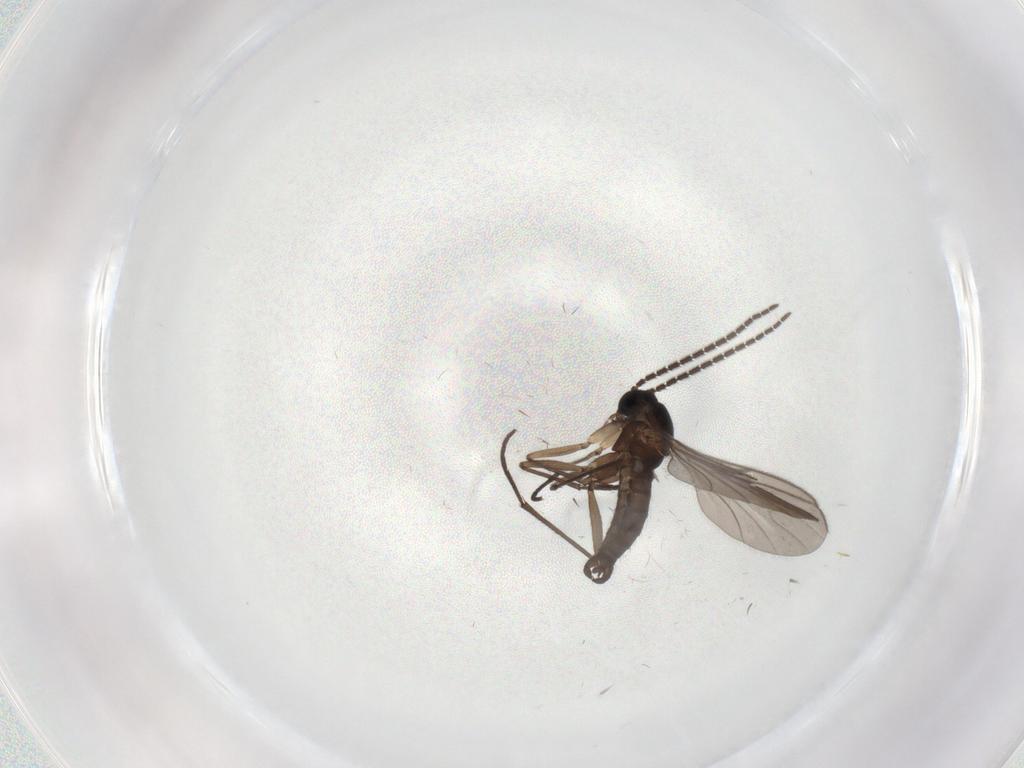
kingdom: Animalia
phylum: Arthropoda
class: Insecta
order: Diptera
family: Sciaridae
